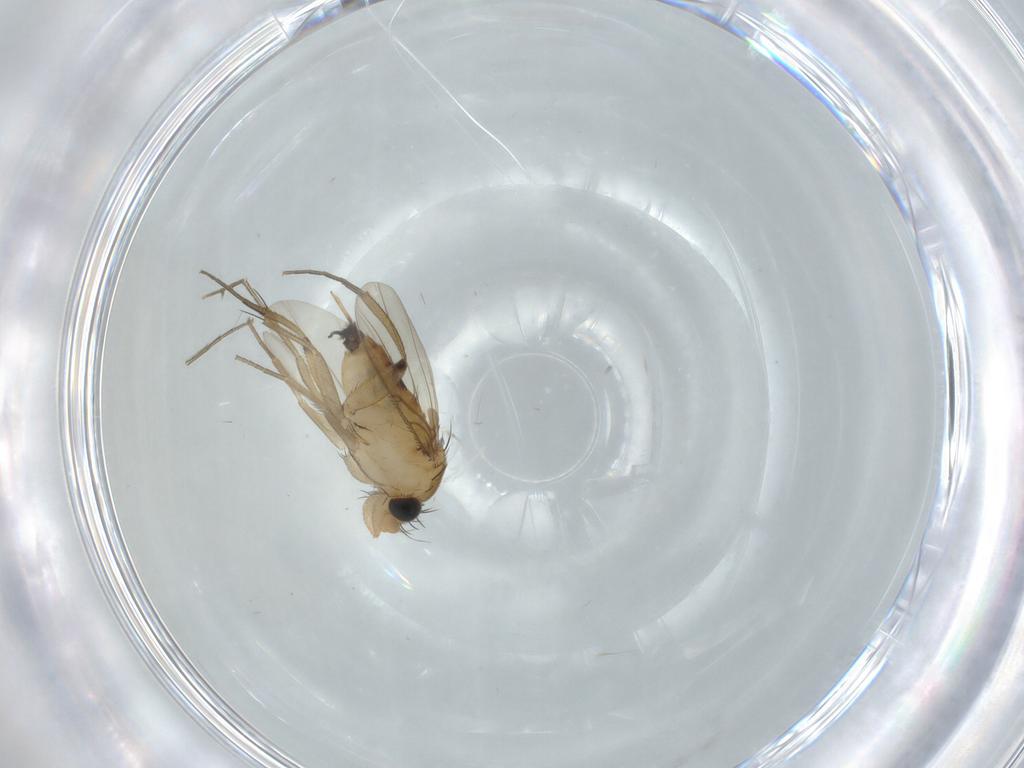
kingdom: Animalia
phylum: Arthropoda
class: Insecta
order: Diptera
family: Phoridae
